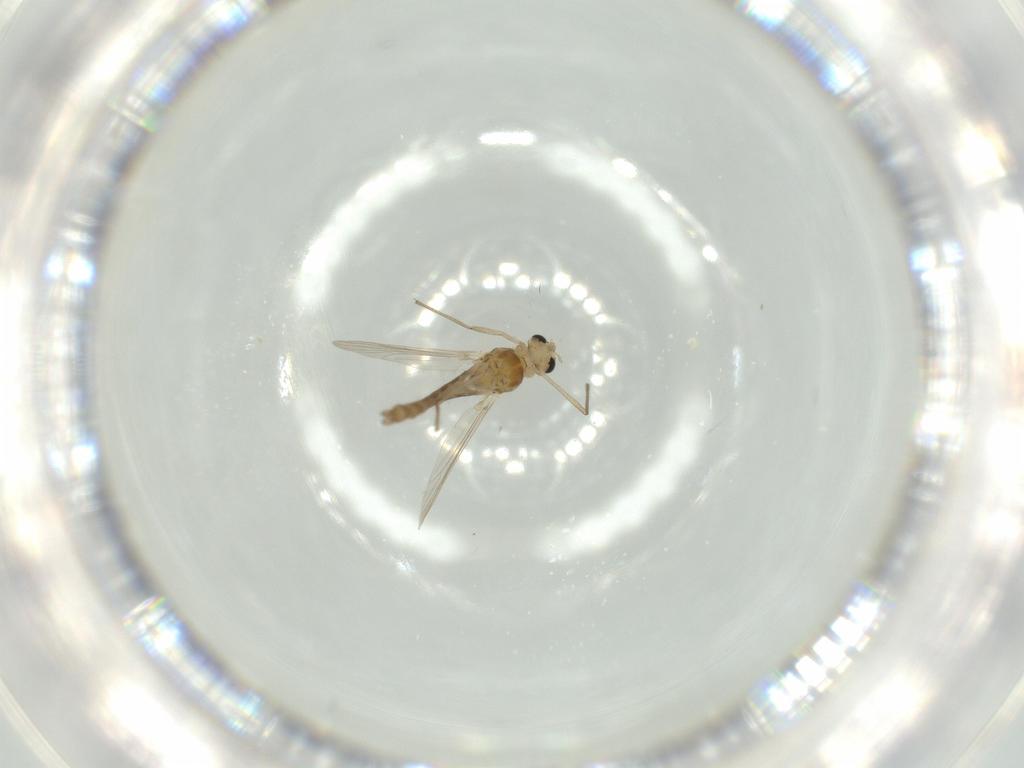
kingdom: Animalia
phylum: Arthropoda
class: Insecta
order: Diptera
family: Chironomidae
